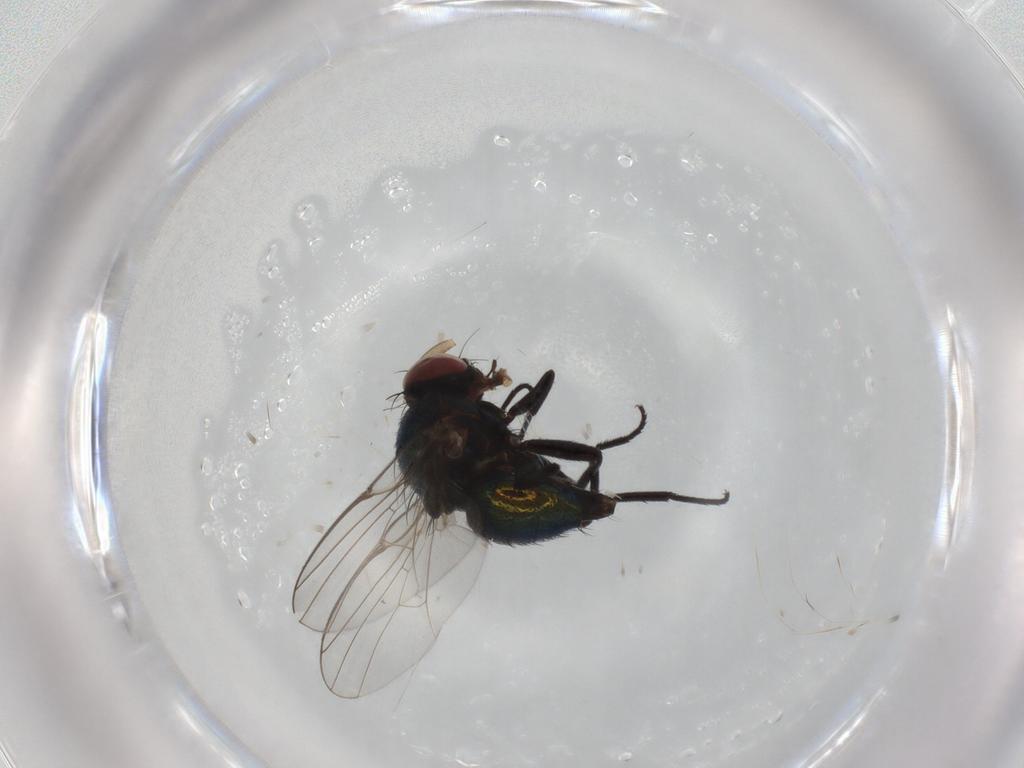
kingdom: Animalia
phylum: Arthropoda
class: Insecta
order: Diptera
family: Agromyzidae
